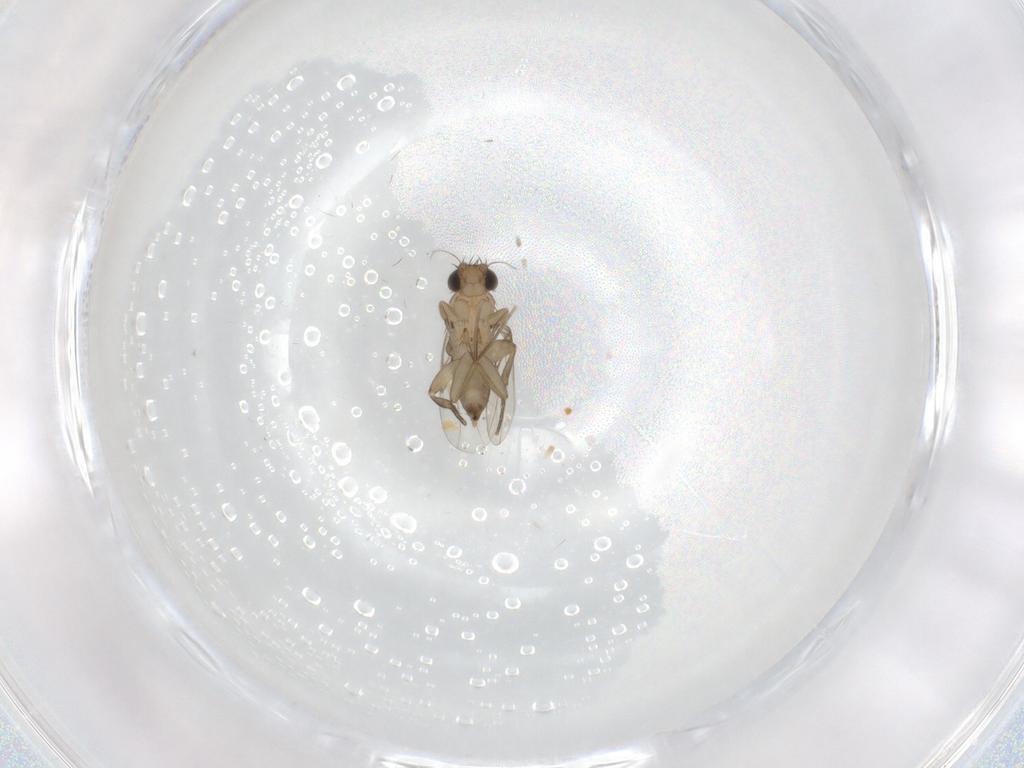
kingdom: Animalia
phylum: Arthropoda
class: Insecta
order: Diptera
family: Phoridae
